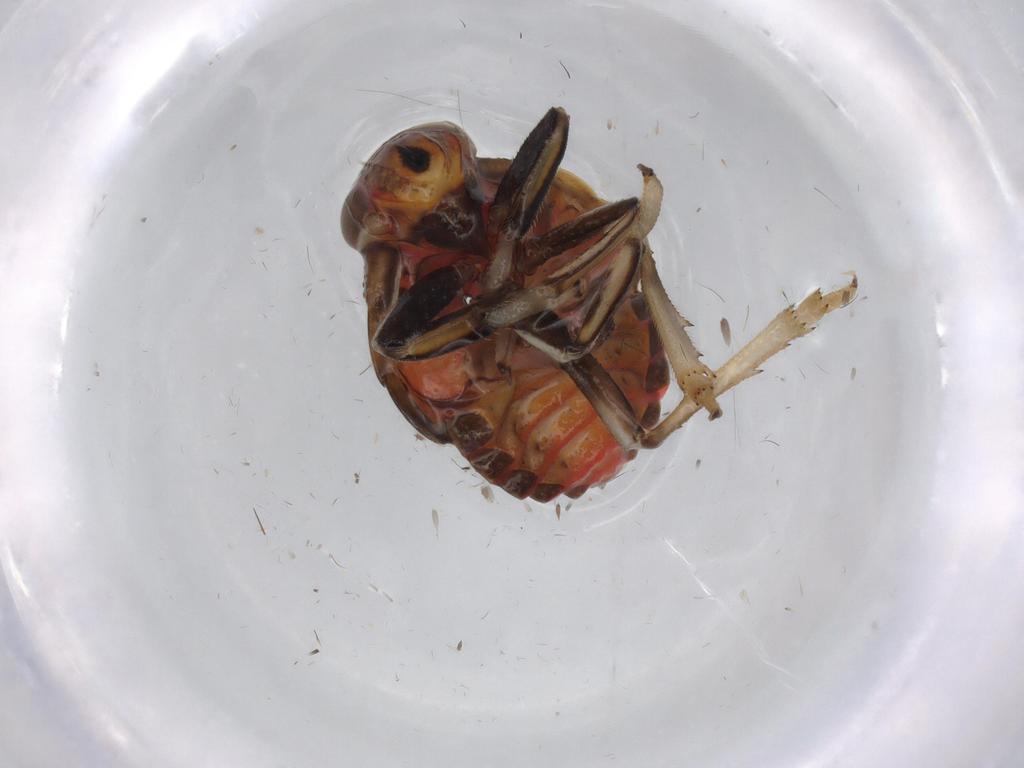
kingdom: Animalia
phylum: Arthropoda
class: Insecta
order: Hemiptera
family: Issidae
